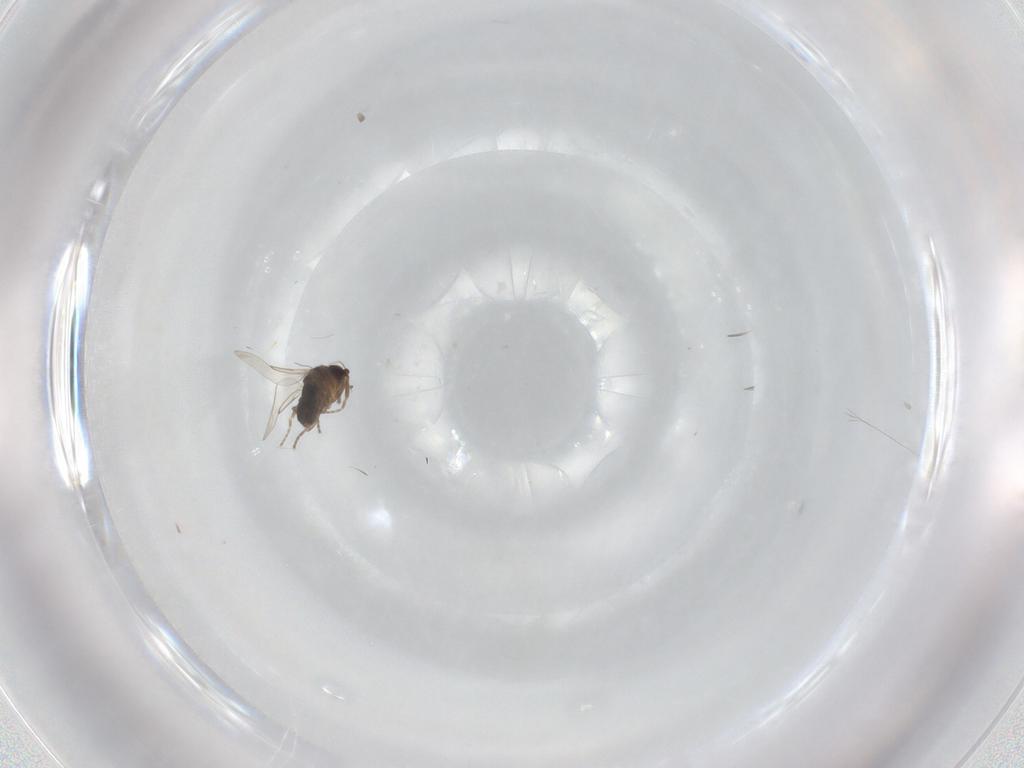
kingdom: Animalia
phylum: Arthropoda
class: Insecta
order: Diptera
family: Phoridae
